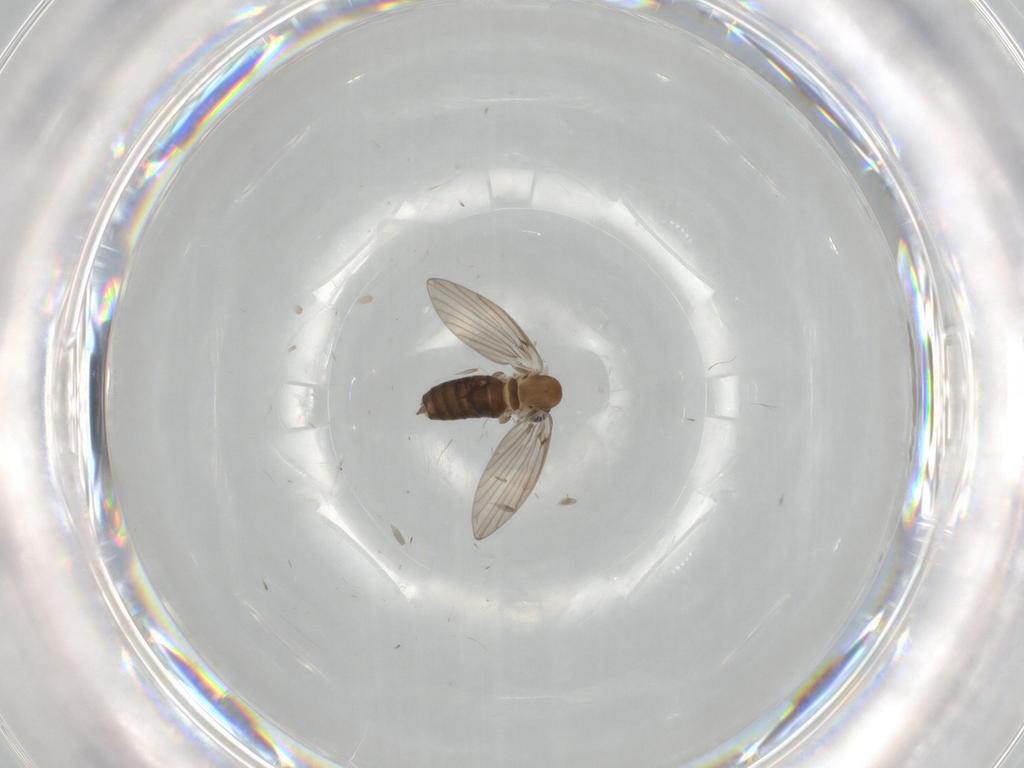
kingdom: Animalia
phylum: Arthropoda
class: Insecta
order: Diptera
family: Psychodidae
